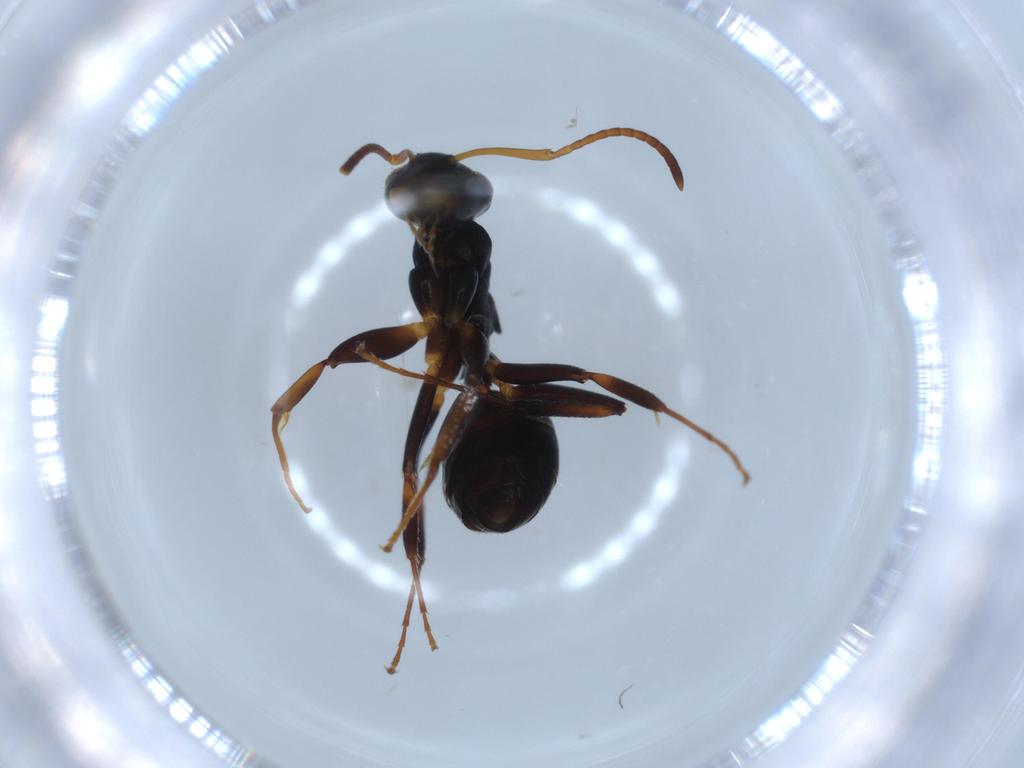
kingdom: Animalia
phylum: Arthropoda
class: Insecta
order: Hymenoptera
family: Formicidae
